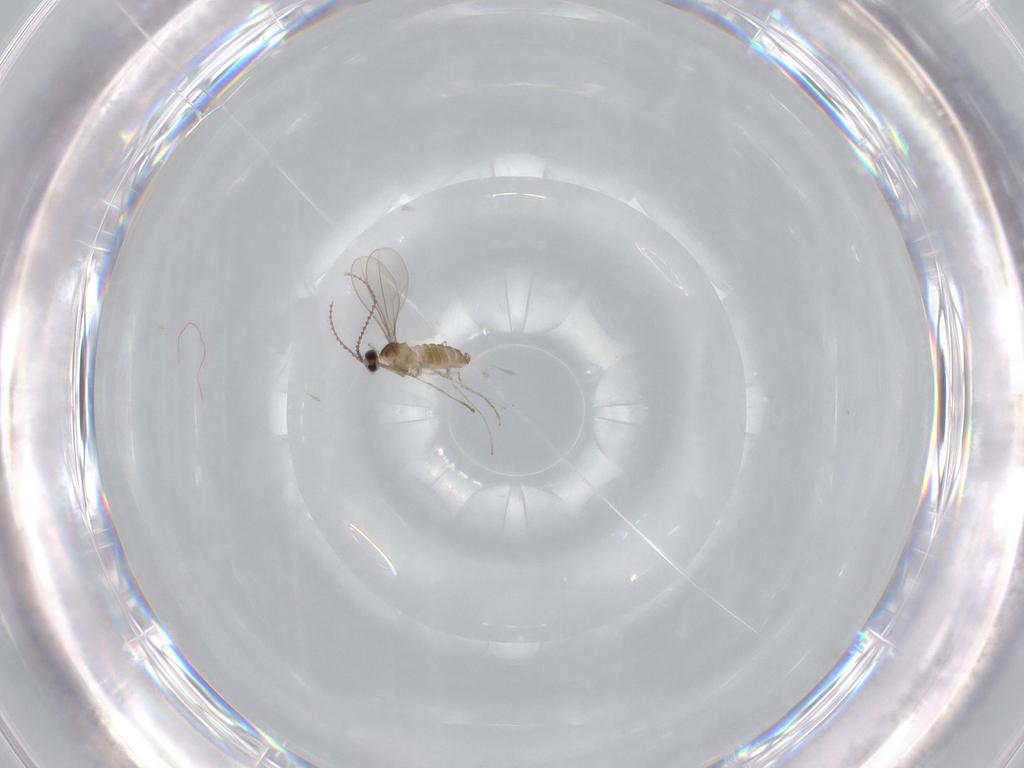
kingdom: Animalia
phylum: Arthropoda
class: Insecta
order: Diptera
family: Cecidomyiidae
